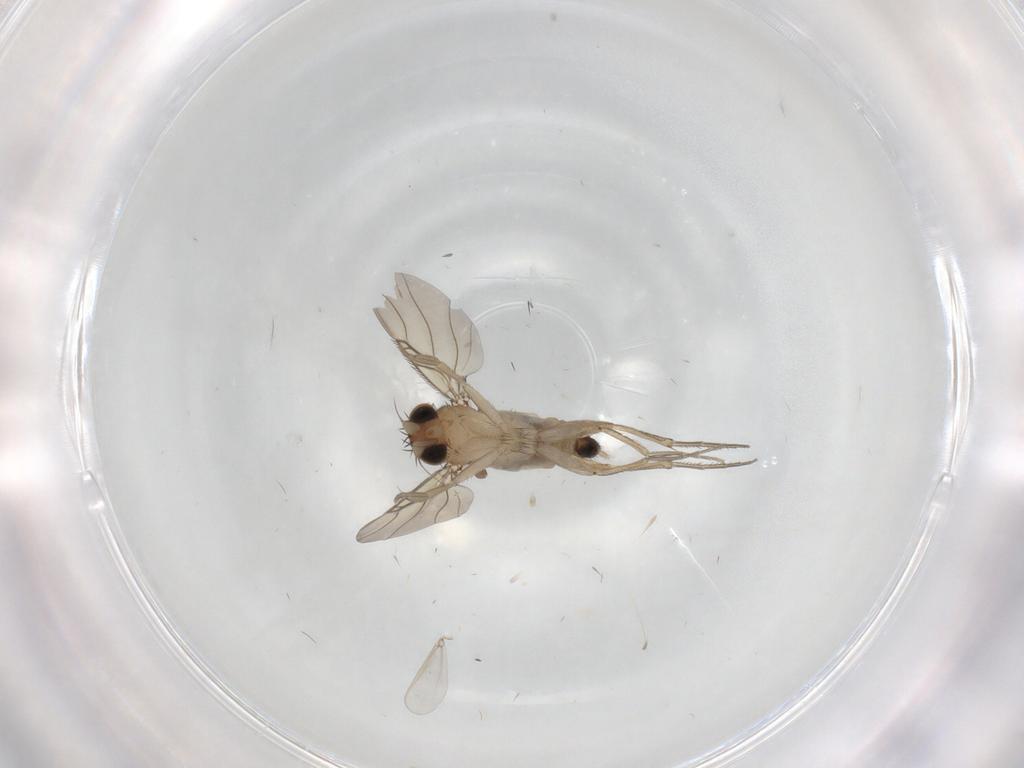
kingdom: Animalia
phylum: Arthropoda
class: Insecta
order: Diptera
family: Phoridae
